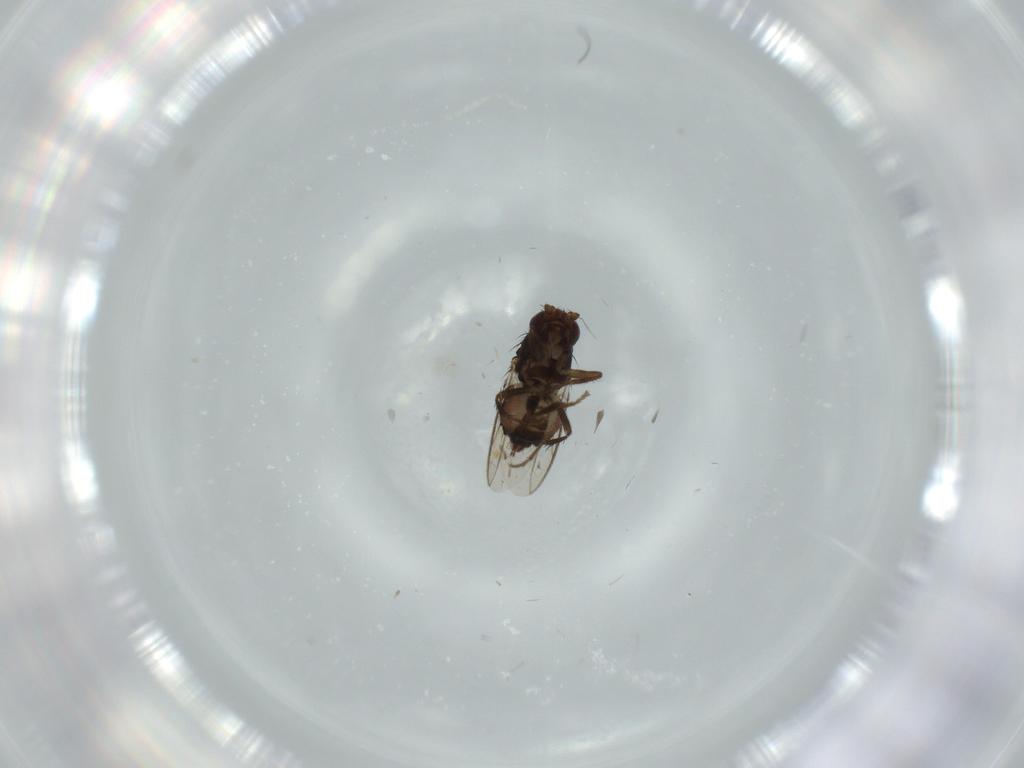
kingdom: Animalia
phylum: Arthropoda
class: Insecta
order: Diptera
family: Sphaeroceridae
